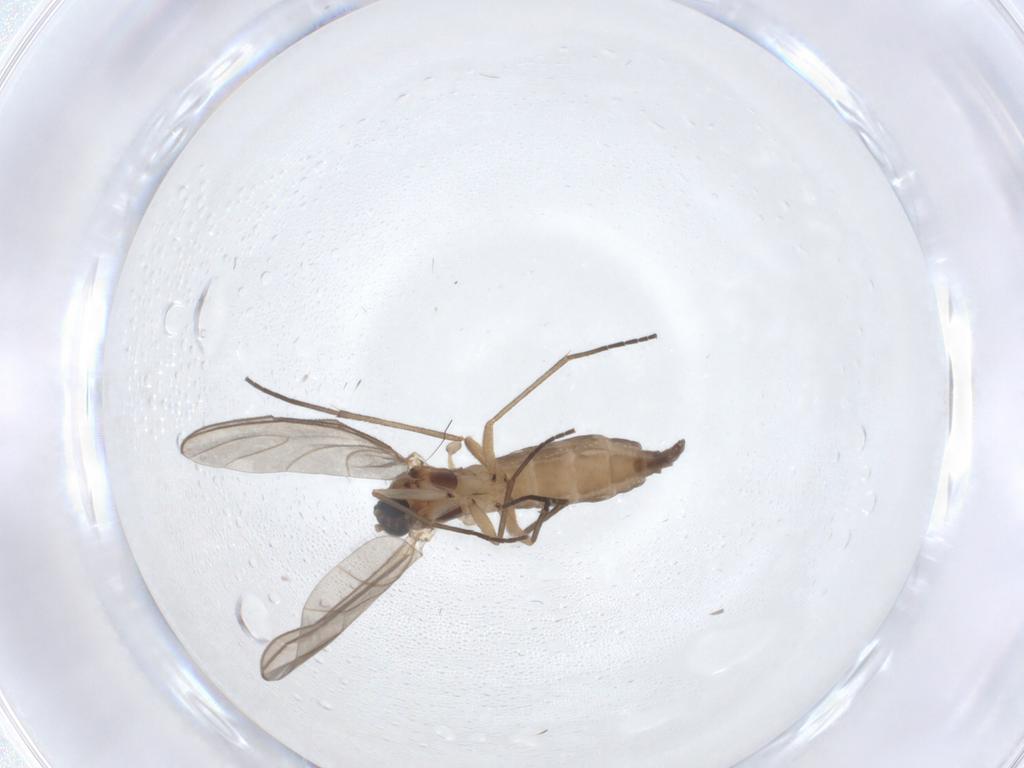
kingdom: Animalia
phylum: Arthropoda
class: Insecta
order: Diptera
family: Sciaridae
